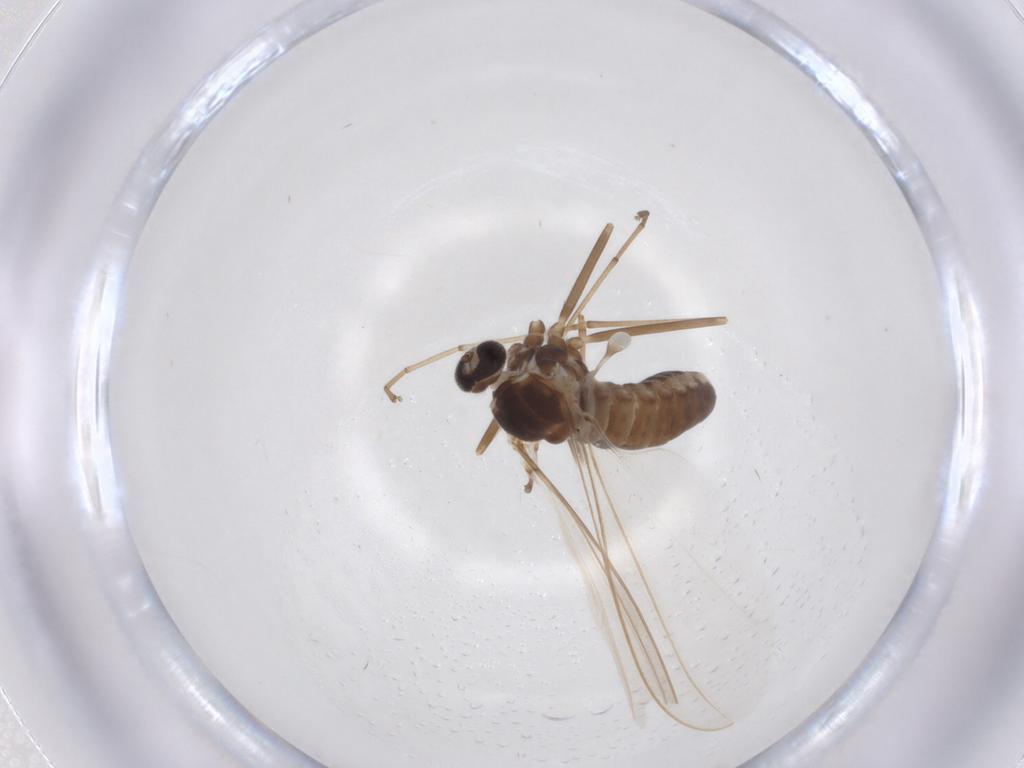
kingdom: Animalia
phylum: Arthropoda
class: Insecta
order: Diptera
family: Cecidomyiidae
